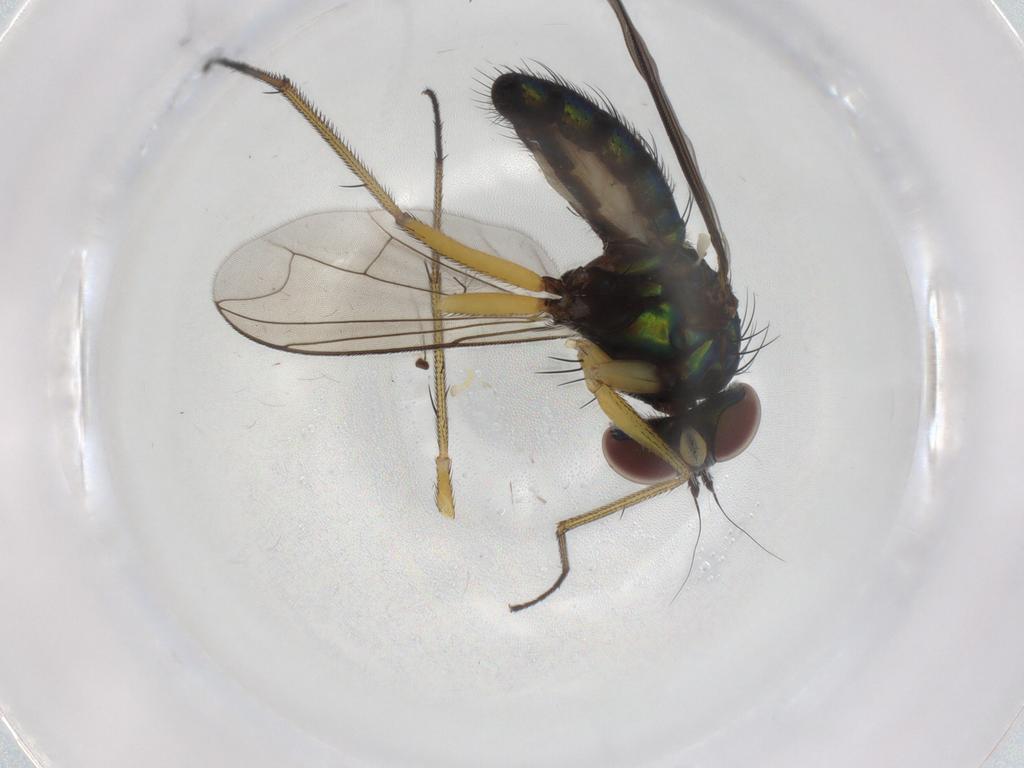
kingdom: Animalia
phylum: Arthropoda
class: Insecta
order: Diptera
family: Dolichopodidae
